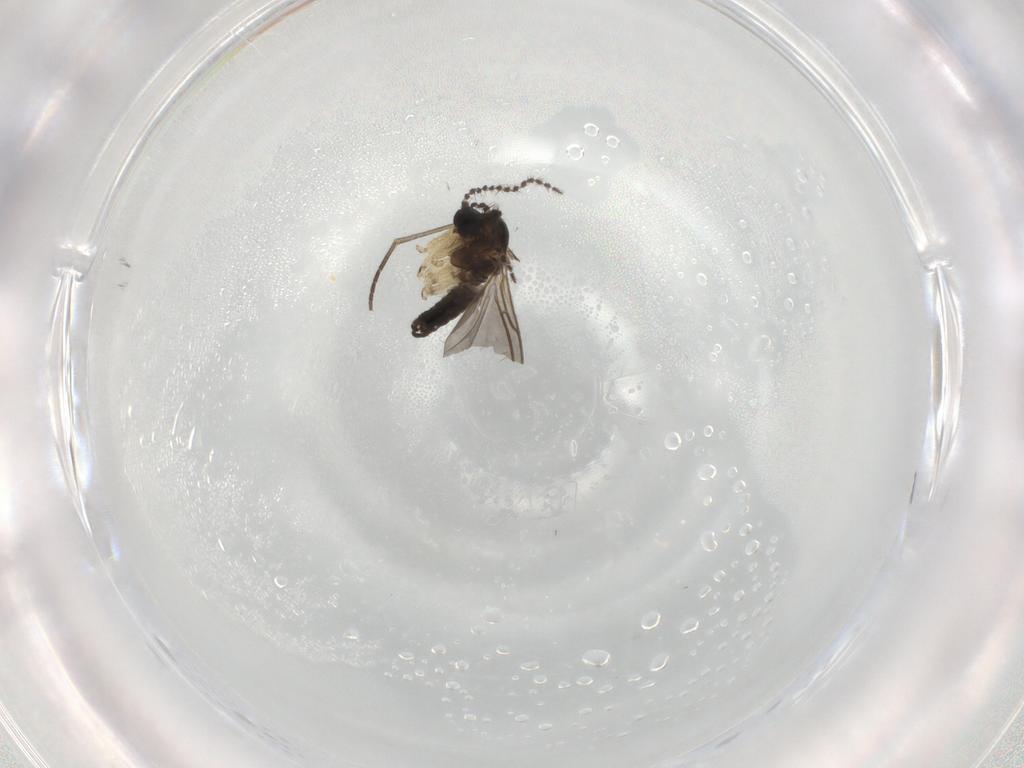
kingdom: Animalia
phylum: Arthropoda
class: Insecta
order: Diptera
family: Sciaridae
